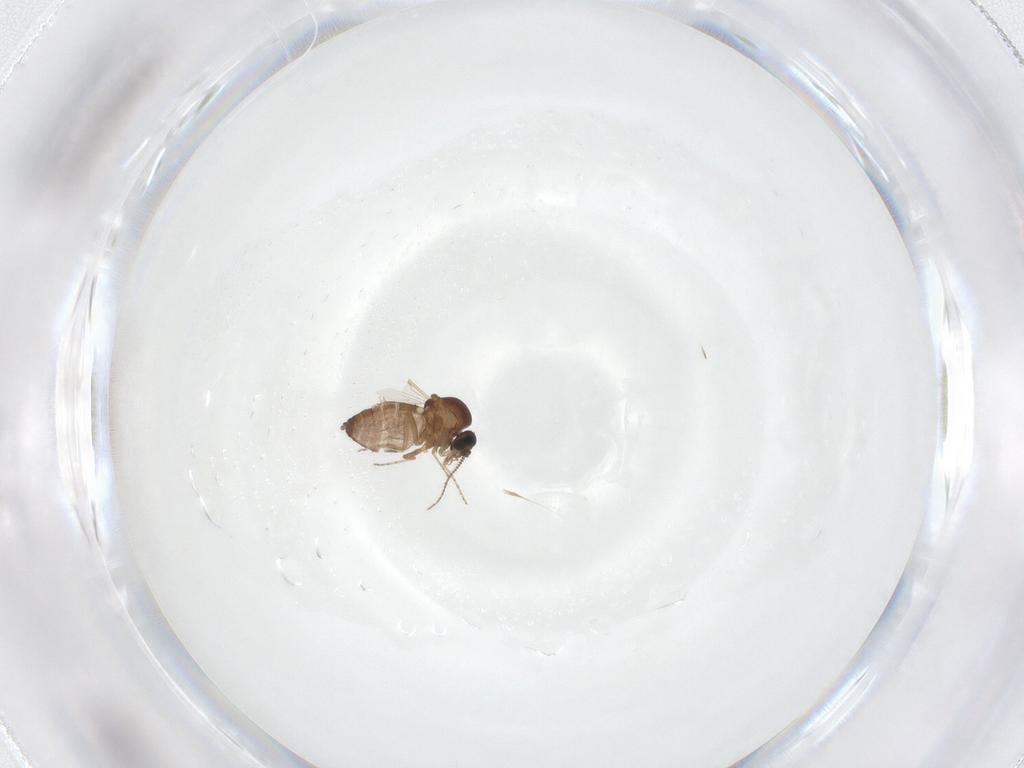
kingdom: Animalia
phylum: Arthropoda
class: Insecta
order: Diptera
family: Ceratopogonidae
